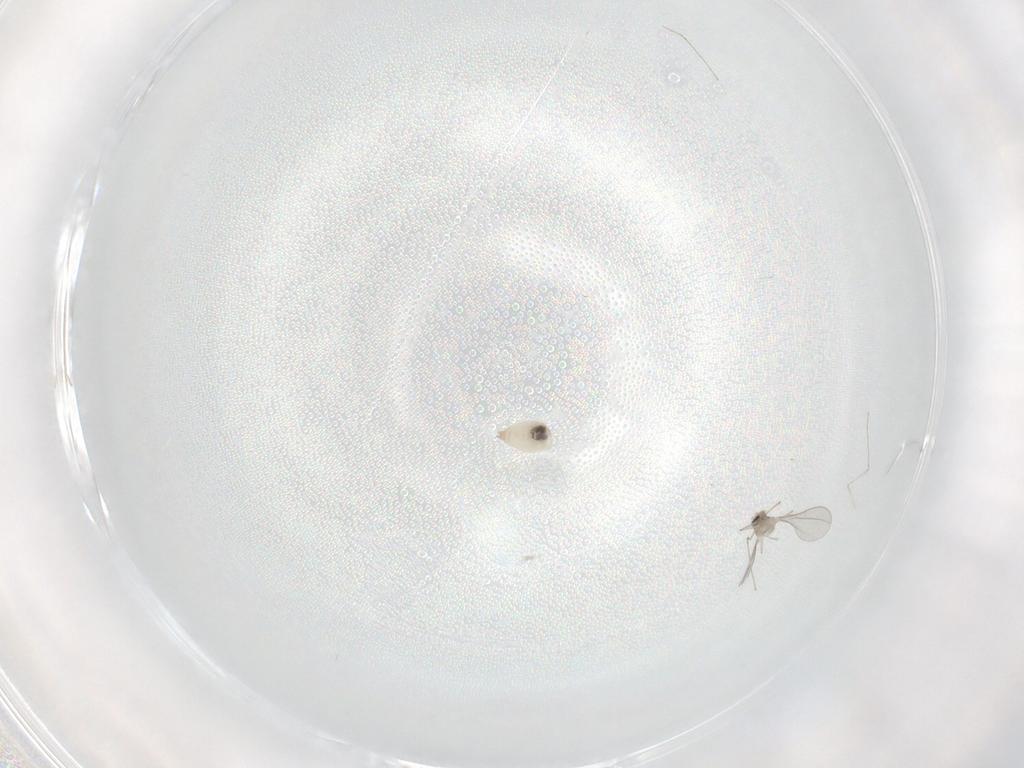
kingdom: Animalia
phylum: Arthropoda
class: Insecta
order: Diptera
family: Cecidomyiidae
